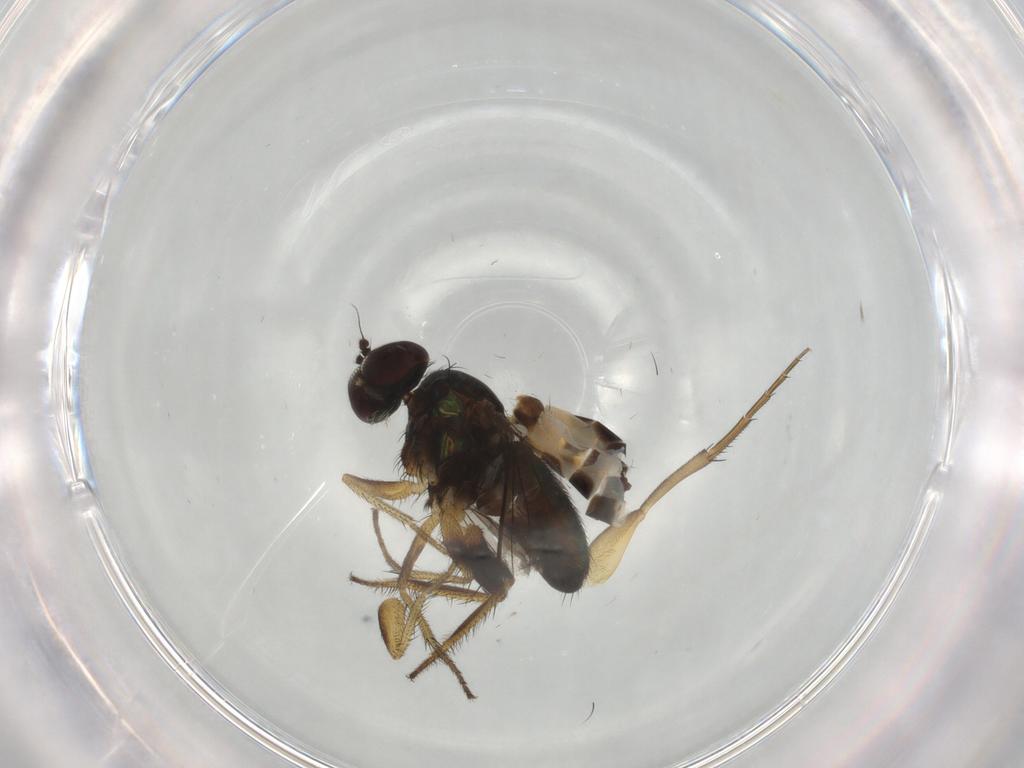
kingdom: Animalia
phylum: Arthropoda
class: Insecta
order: Diptera
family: Dolichopodidae
